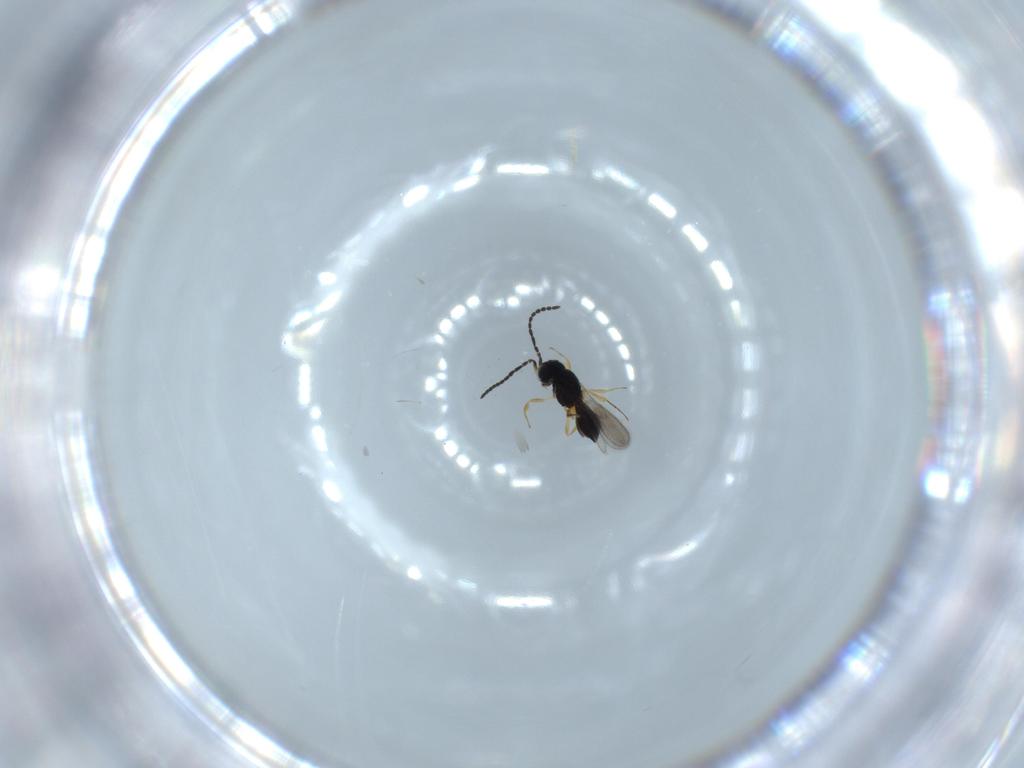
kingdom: Animalia
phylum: Arthropoda
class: Insecta
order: Hymenoptera
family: Scelionidae
